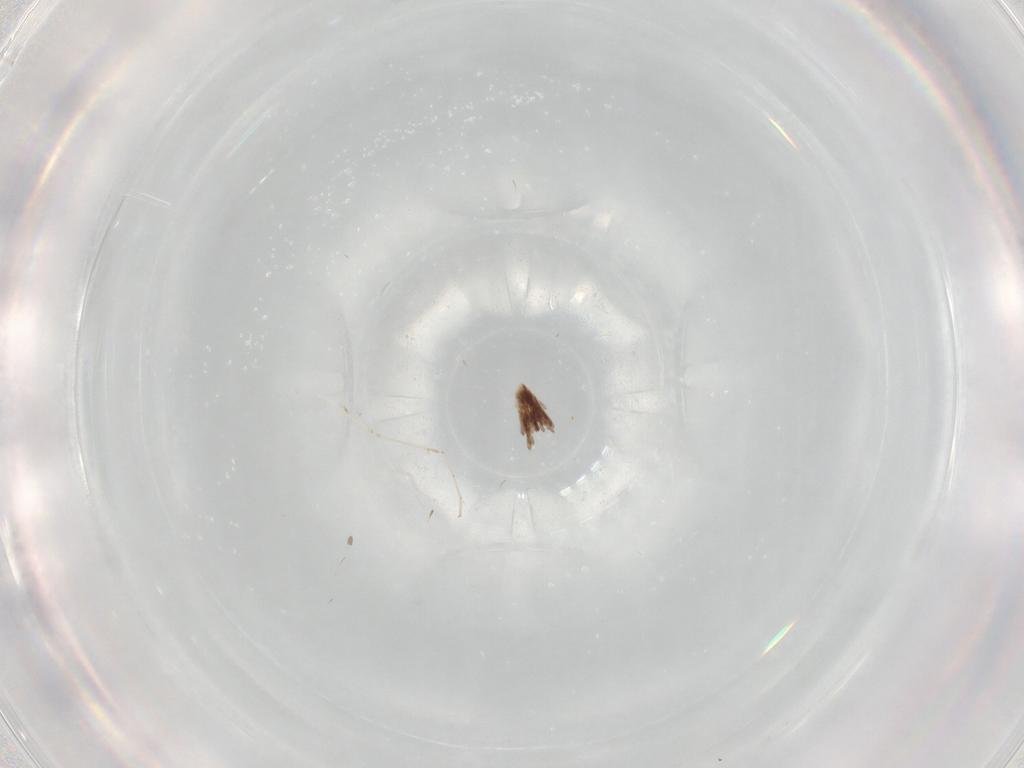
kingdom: Animalia
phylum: Arthropoda
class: Insecta
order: Diptera
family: Cecidomyiidae
